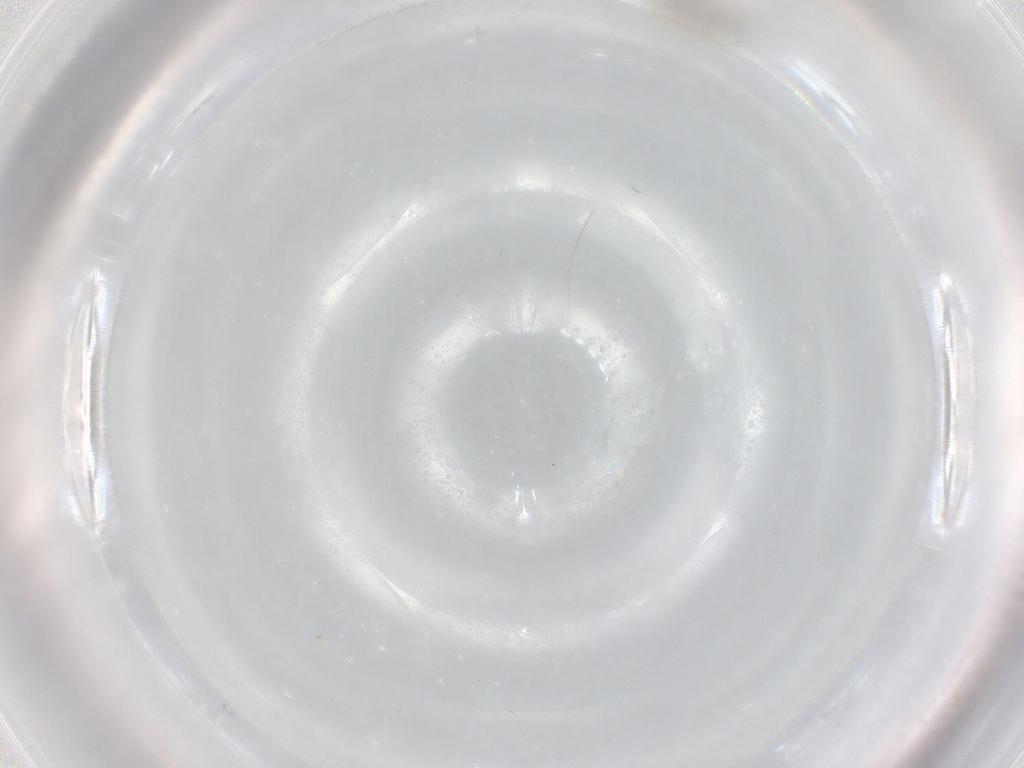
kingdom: Animalia
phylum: Arthropoda
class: Insecta
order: Diptera
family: Chironomidae
